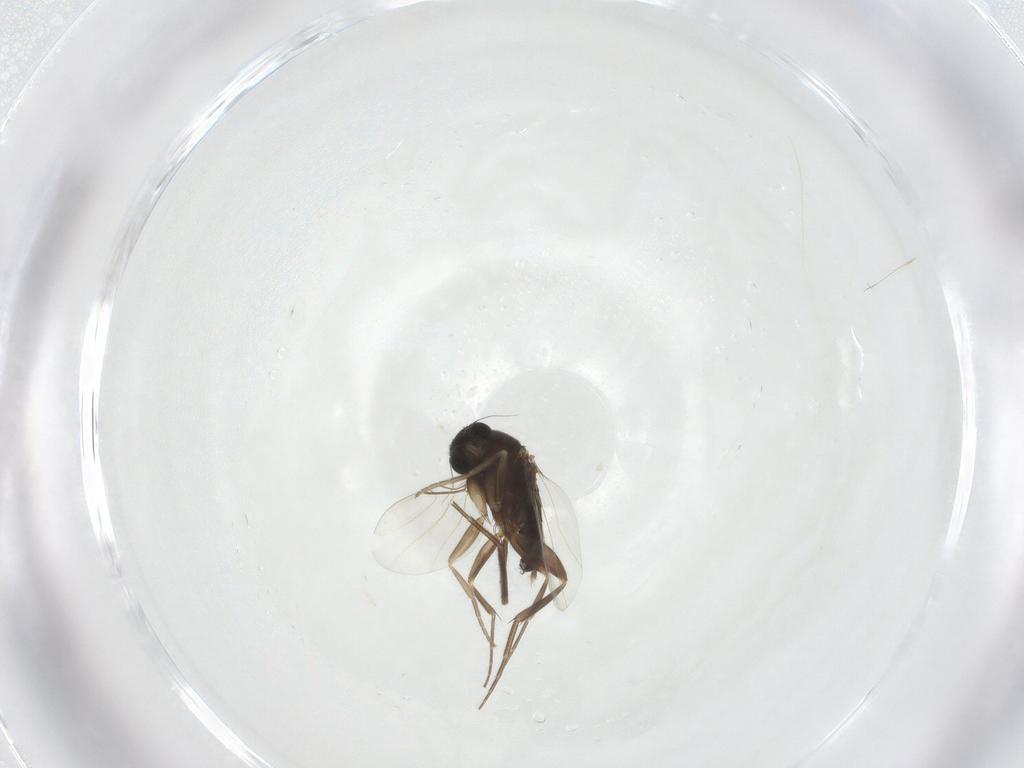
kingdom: Animalia
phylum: Arthropoda
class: Insecta
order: Diptera
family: Phoridae
